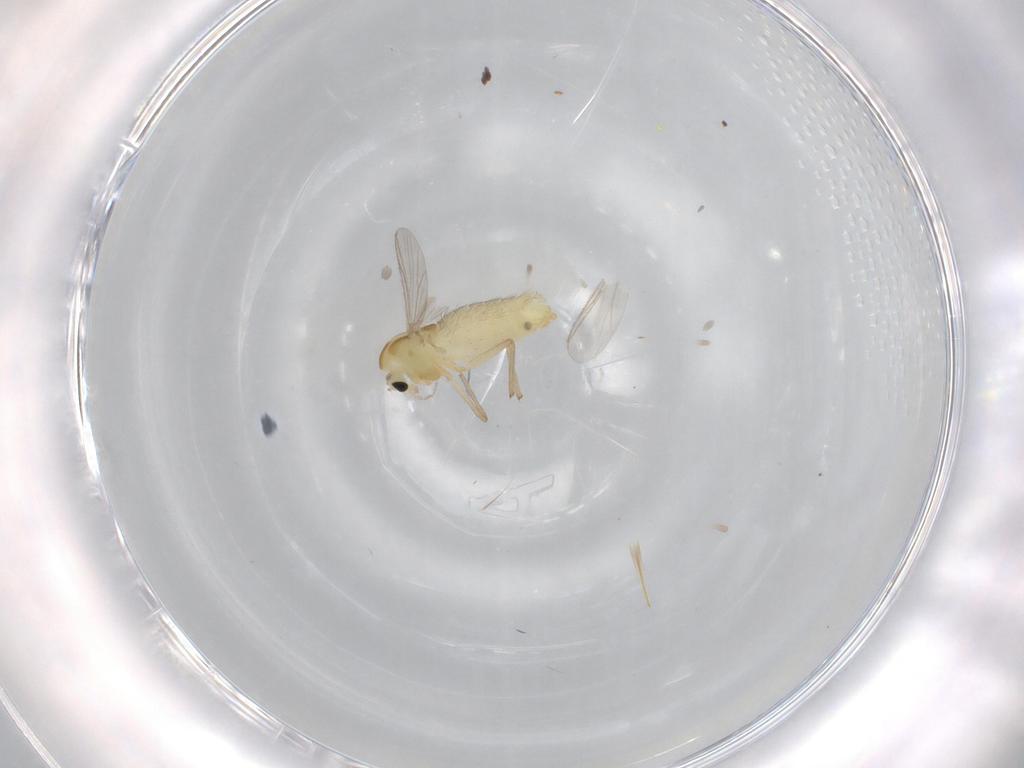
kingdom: Animalia
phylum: Arthropoda
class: Insecta
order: Diptera
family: Chironomidae
